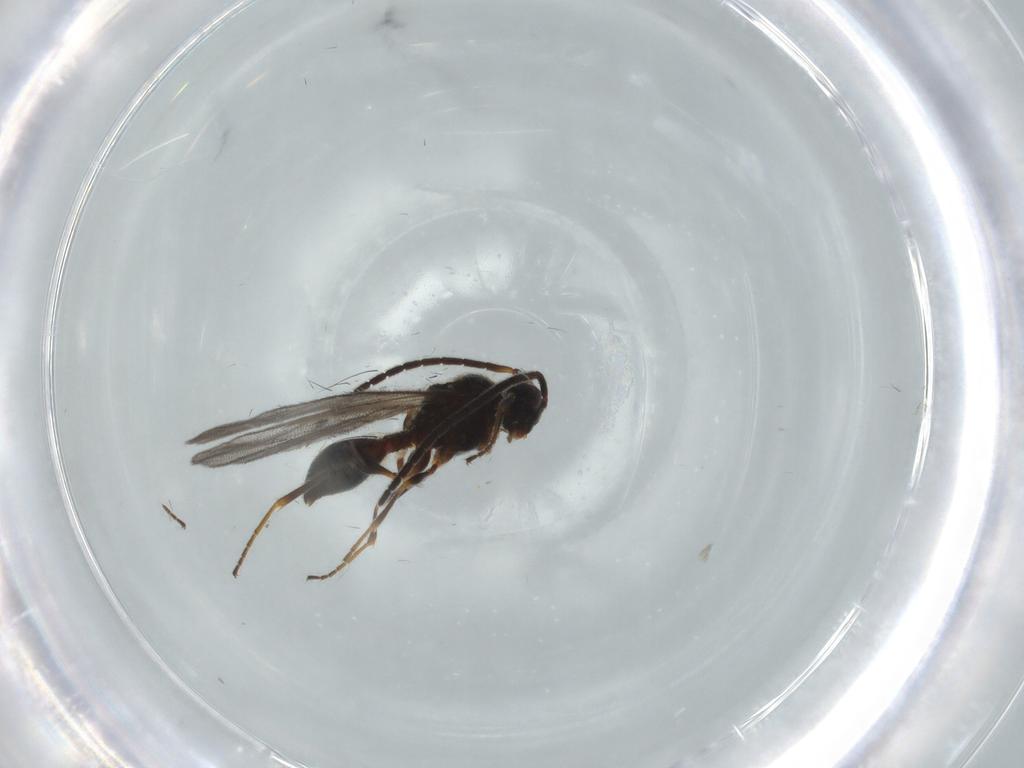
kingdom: Animalia
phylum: Arthropoda
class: Insecta
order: Hymenoptera
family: Diapriidae
